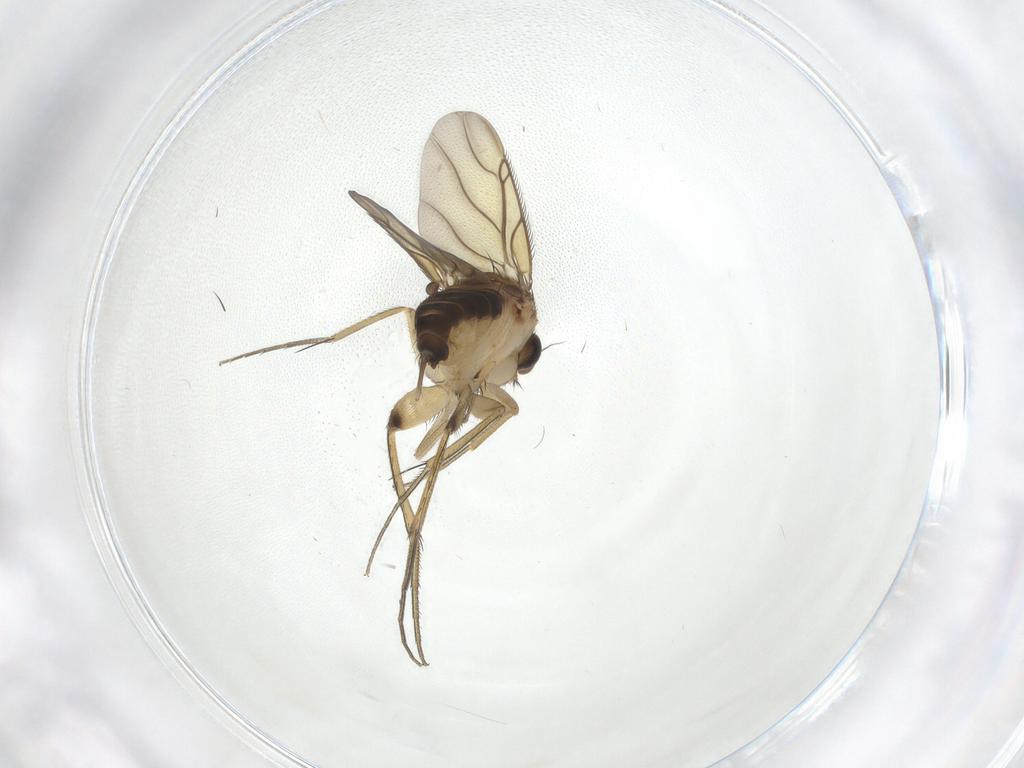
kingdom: Animalia
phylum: Arthropoda
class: Insecta
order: Diptera
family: Phoridae
